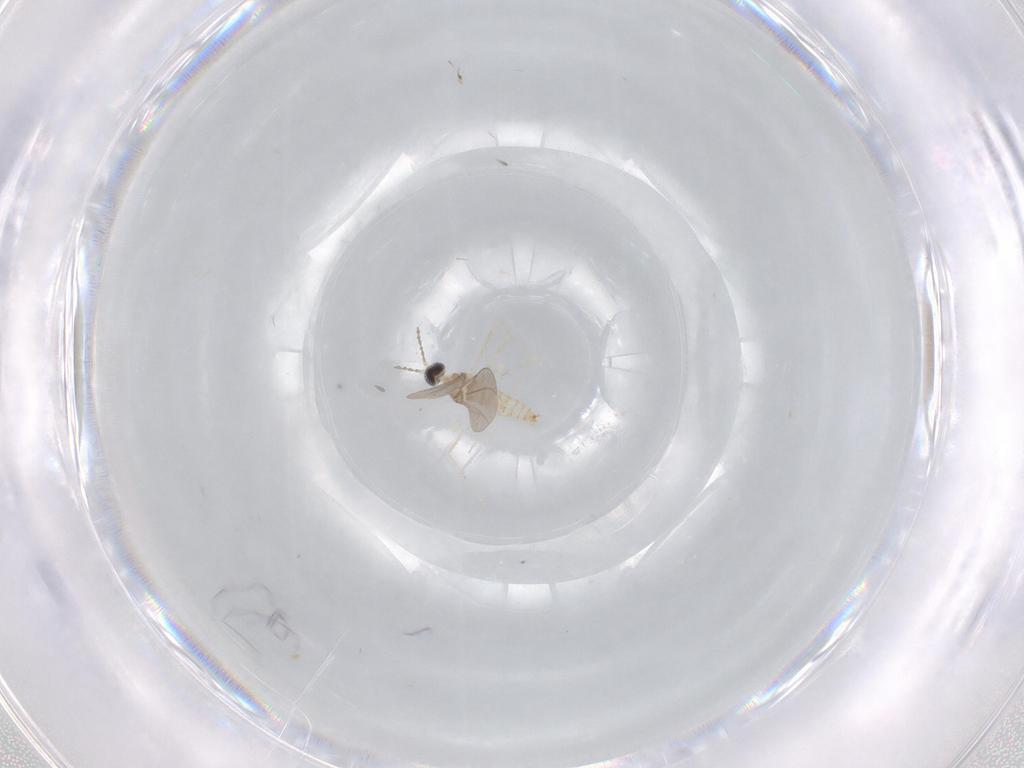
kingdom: Animalia
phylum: Arthropoda
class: Insecta
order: Diptera
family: Cecidomyiidae
